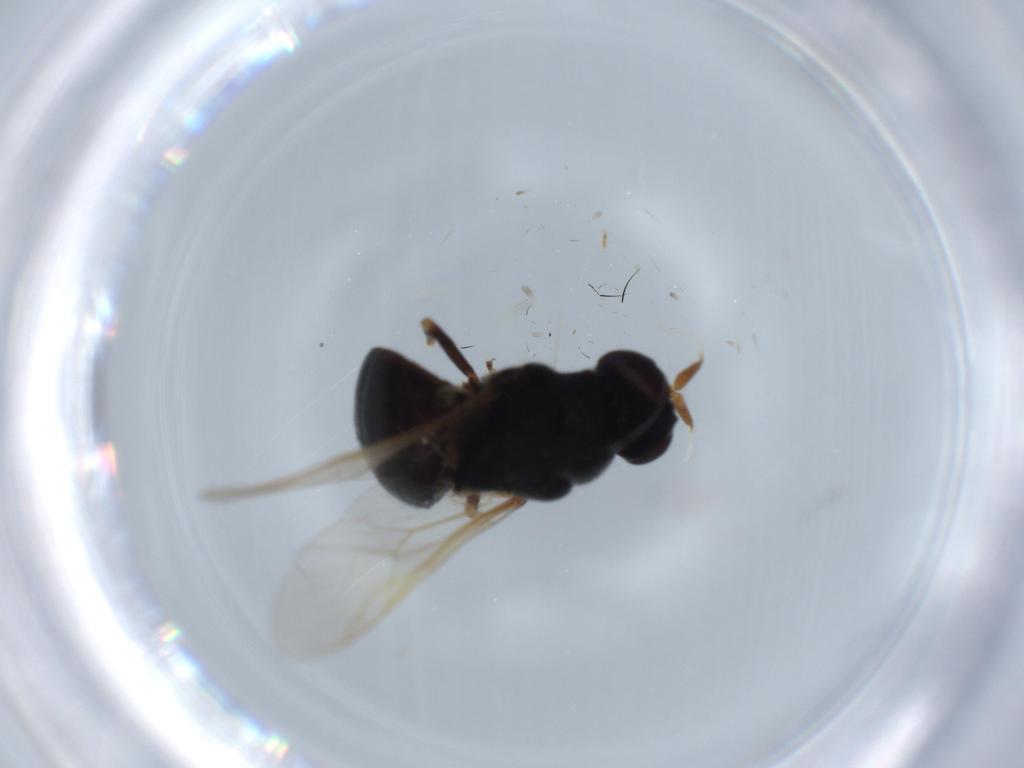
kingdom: Animalia
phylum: Arthropoda
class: Insecta
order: Diptera
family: Stratiomyidae
